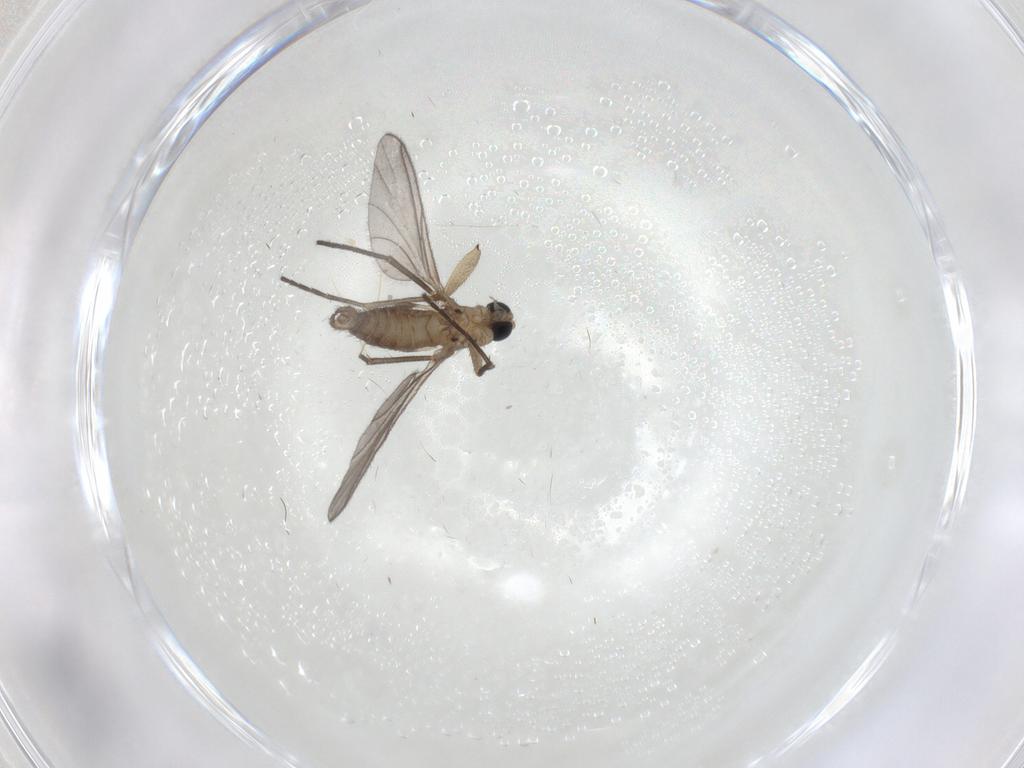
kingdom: Animalia
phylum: Arthropoda
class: Insecta
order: Diptera
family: Sciaridae
